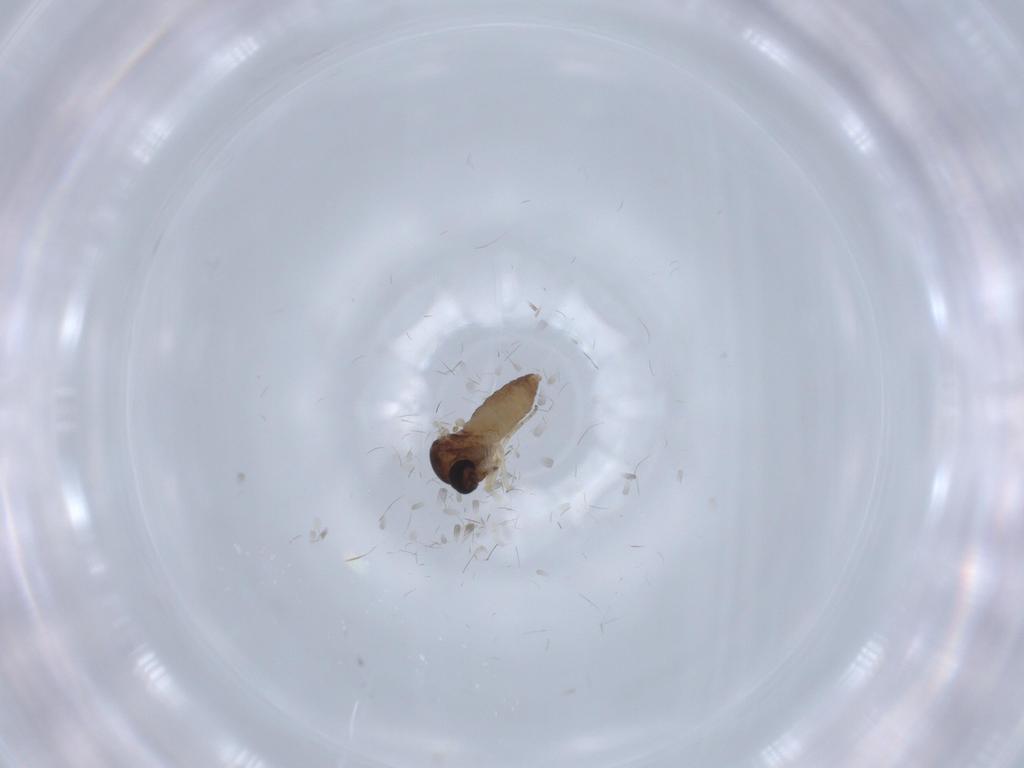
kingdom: Animalia
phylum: Arthropoda
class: Insecta
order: Diptera
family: Ceratopogonidae
